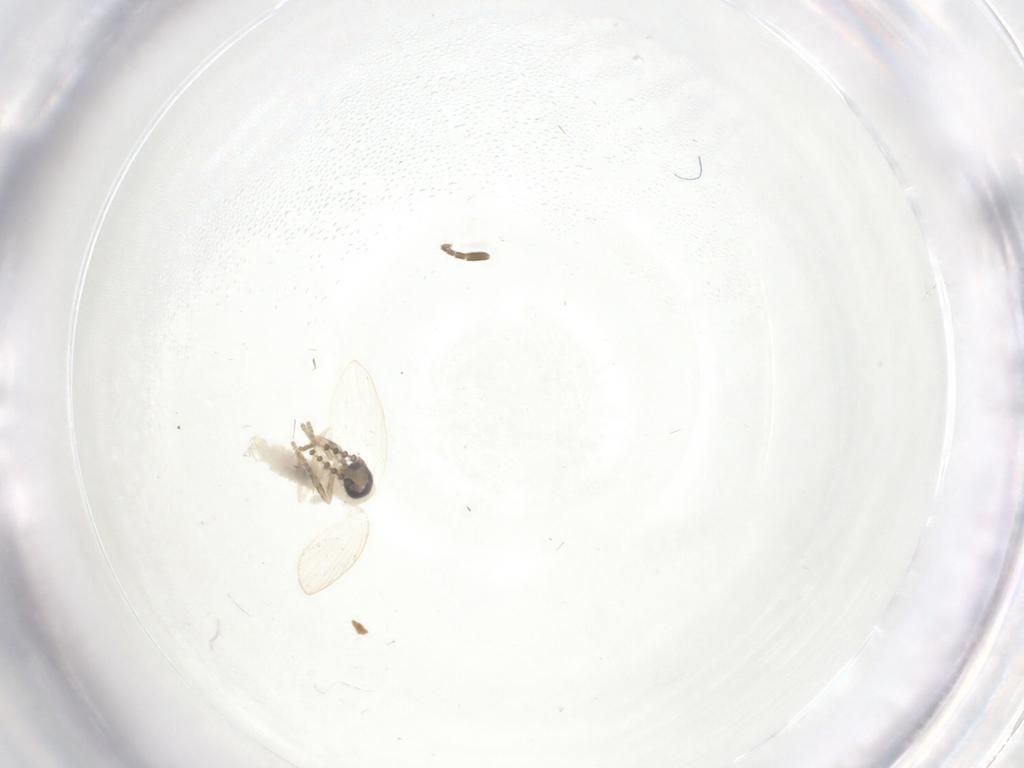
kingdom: Animalia
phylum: Arthropoda
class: Insecta
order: Diptera
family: Psychodidae
